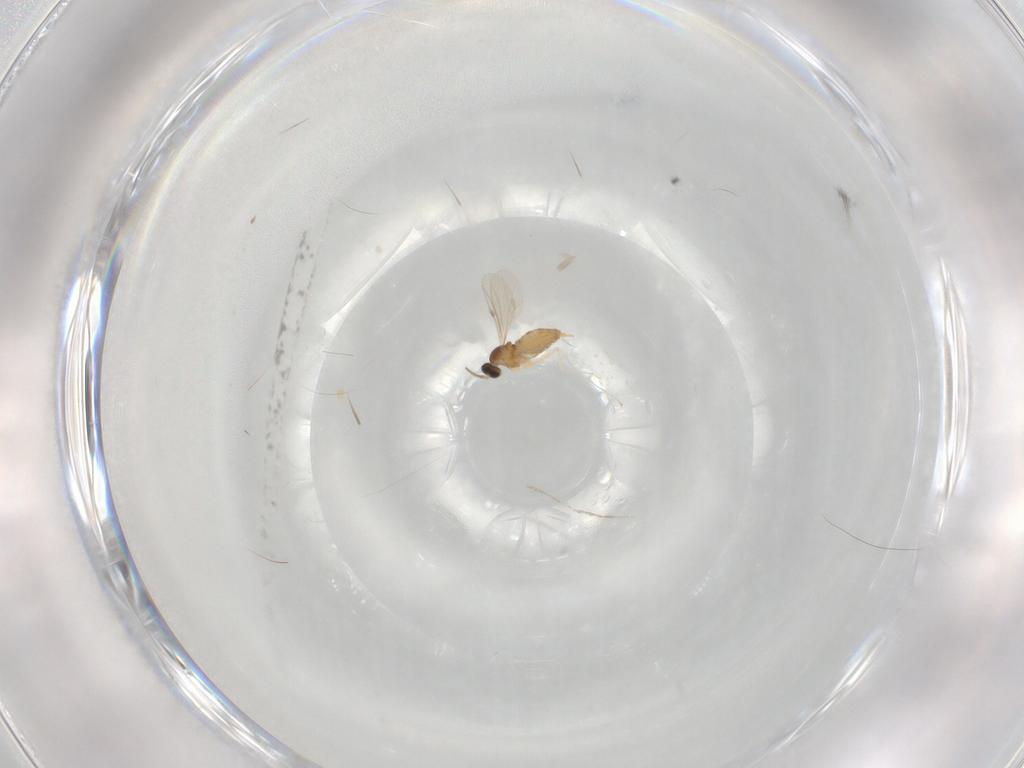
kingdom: Animalia
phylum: Arthropoda
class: Insecta
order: Diptera
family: Cecidomyiidae
